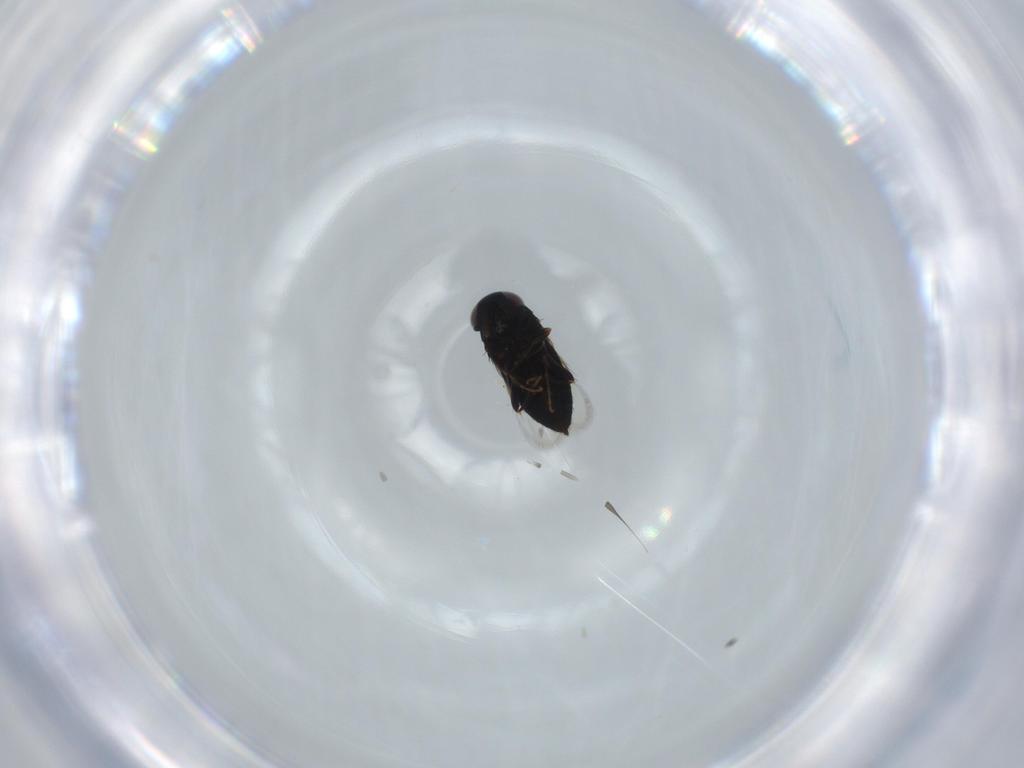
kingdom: Animalia
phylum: Arthropoda
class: Insecta
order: Hymenoptera
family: Signiphoridae
